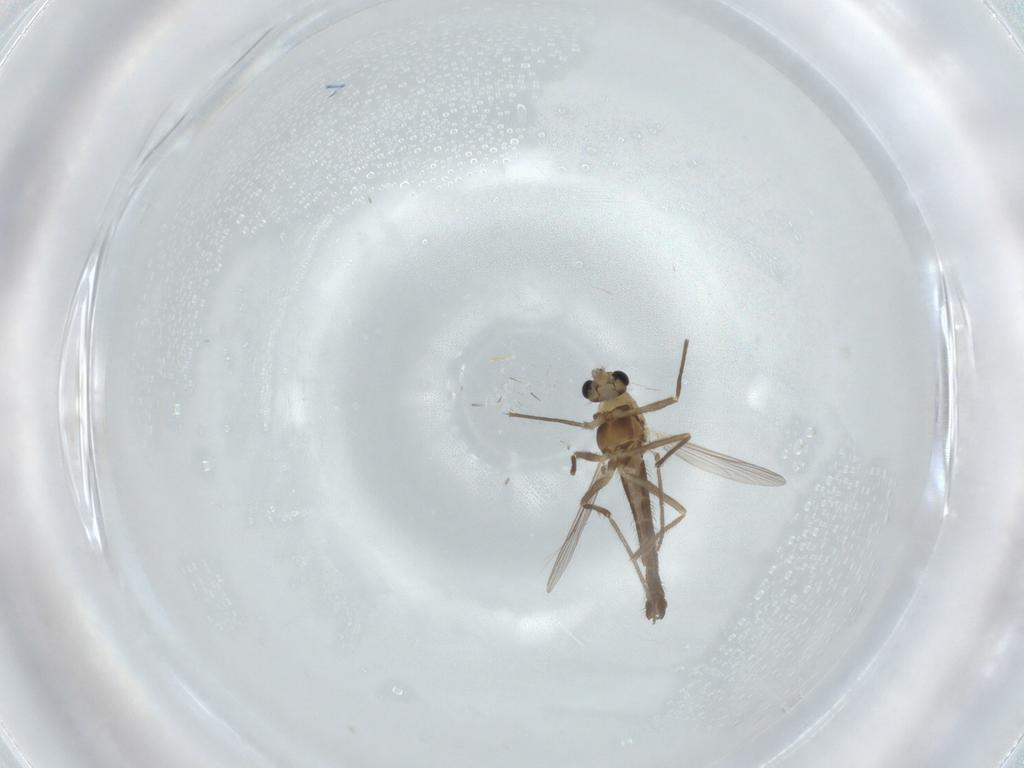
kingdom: Animalia
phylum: Arthropoda
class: Insecta
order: Diptera
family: Chironomidae
